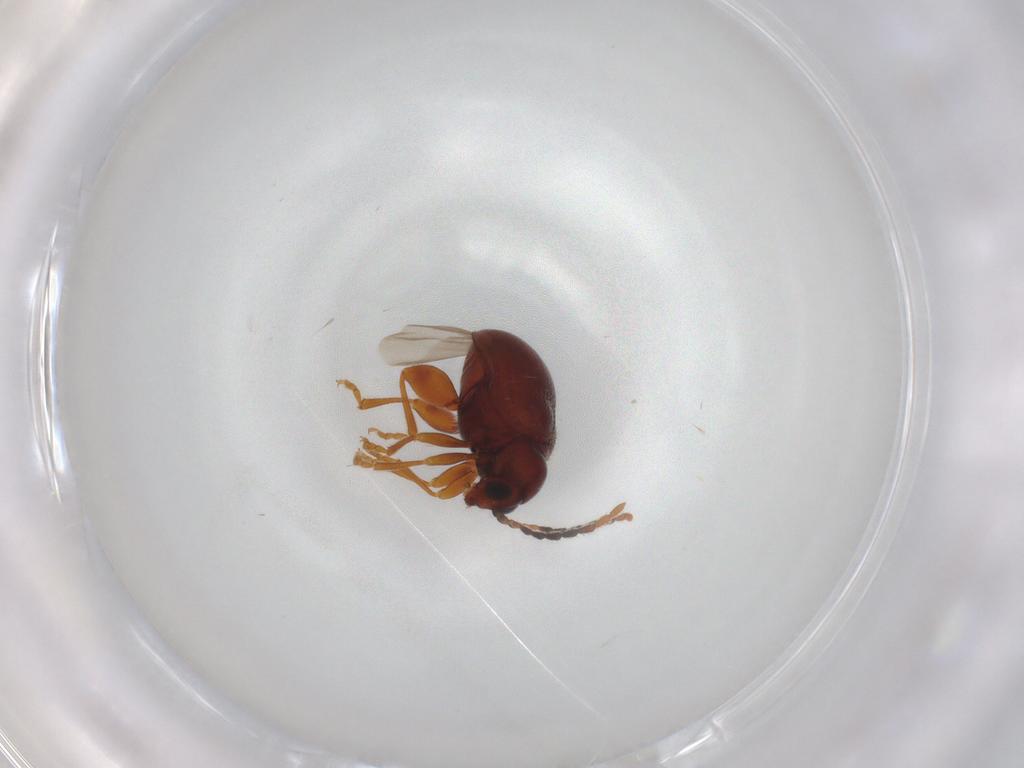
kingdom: Animalia
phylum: Arthropoda
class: Insecta
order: Coleoptera
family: Chrysomelidae
